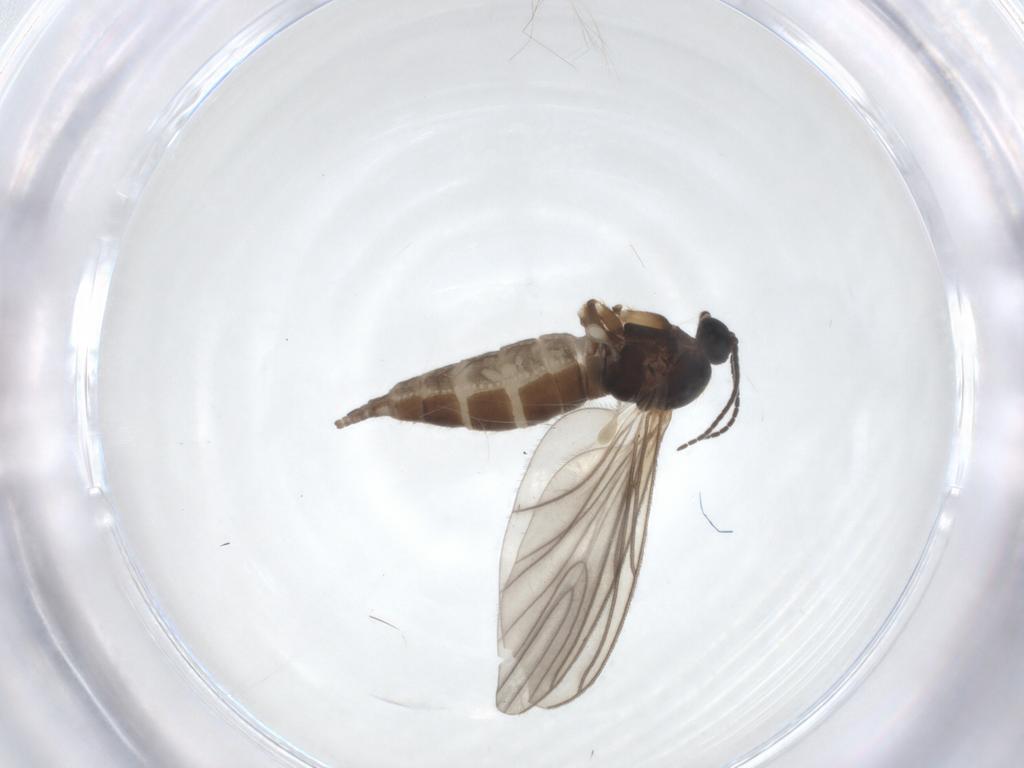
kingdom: Animalia
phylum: Arthropoda
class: Insecta
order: Diptera
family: Sciaridae
